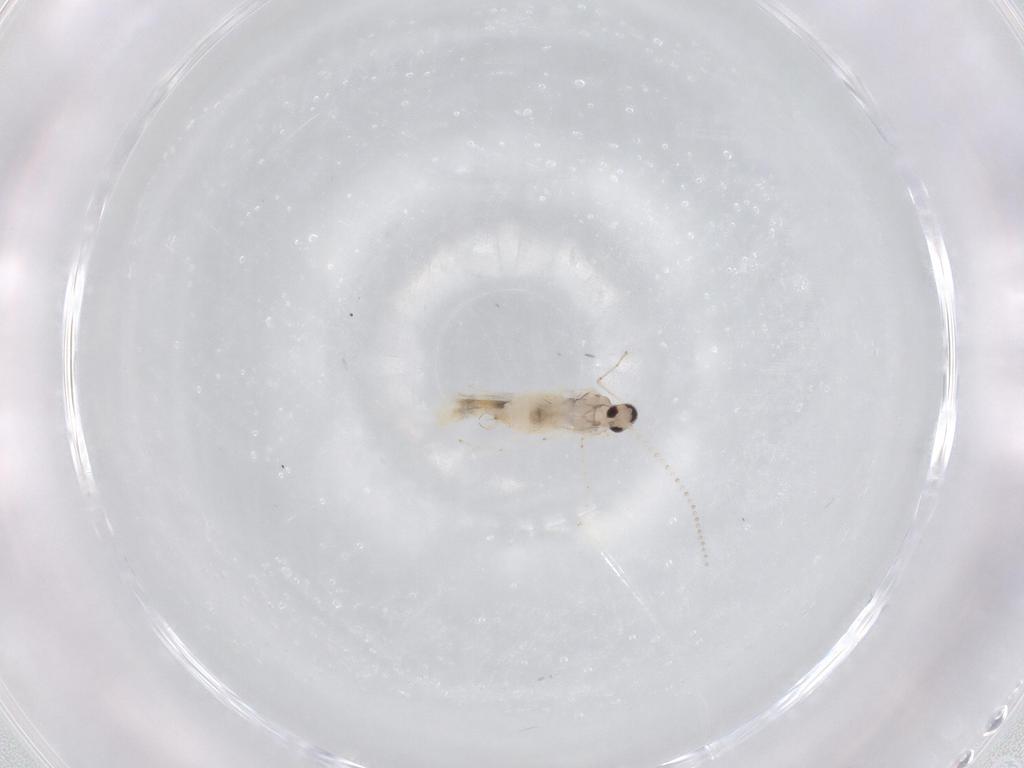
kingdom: Animalia
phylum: Arthropoda
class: Insecta
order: Diptera
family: Cecidomyiidae
